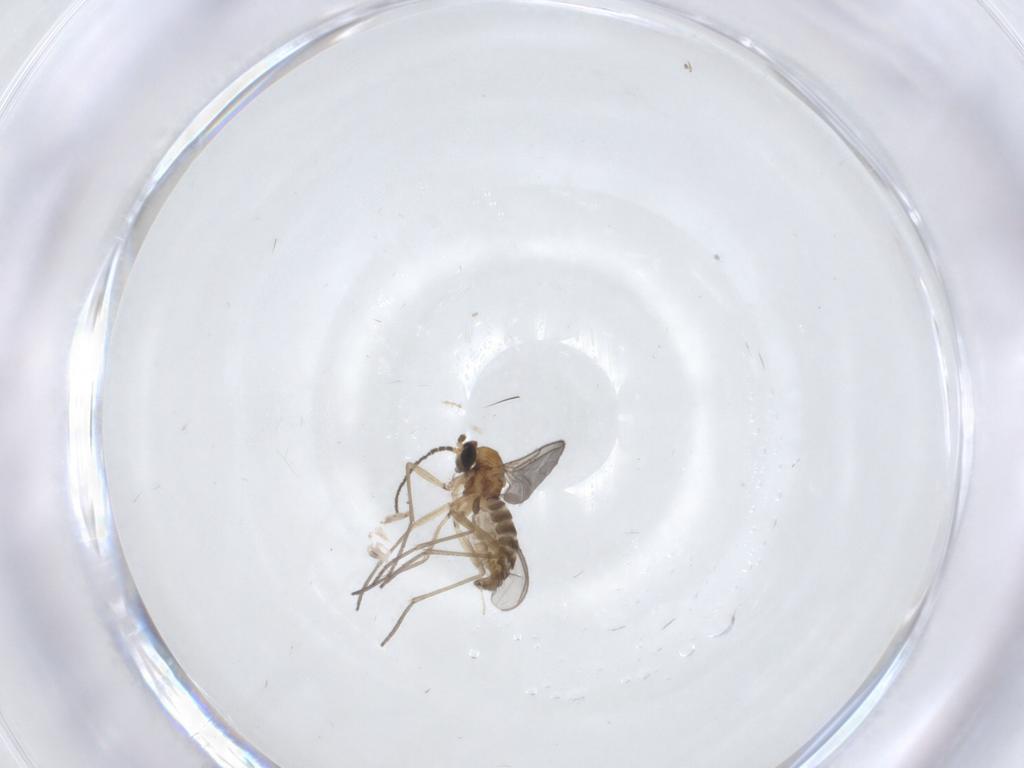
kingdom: Animalia
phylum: Arthropoda
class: Insecta
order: Diptera
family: Sciaridae
